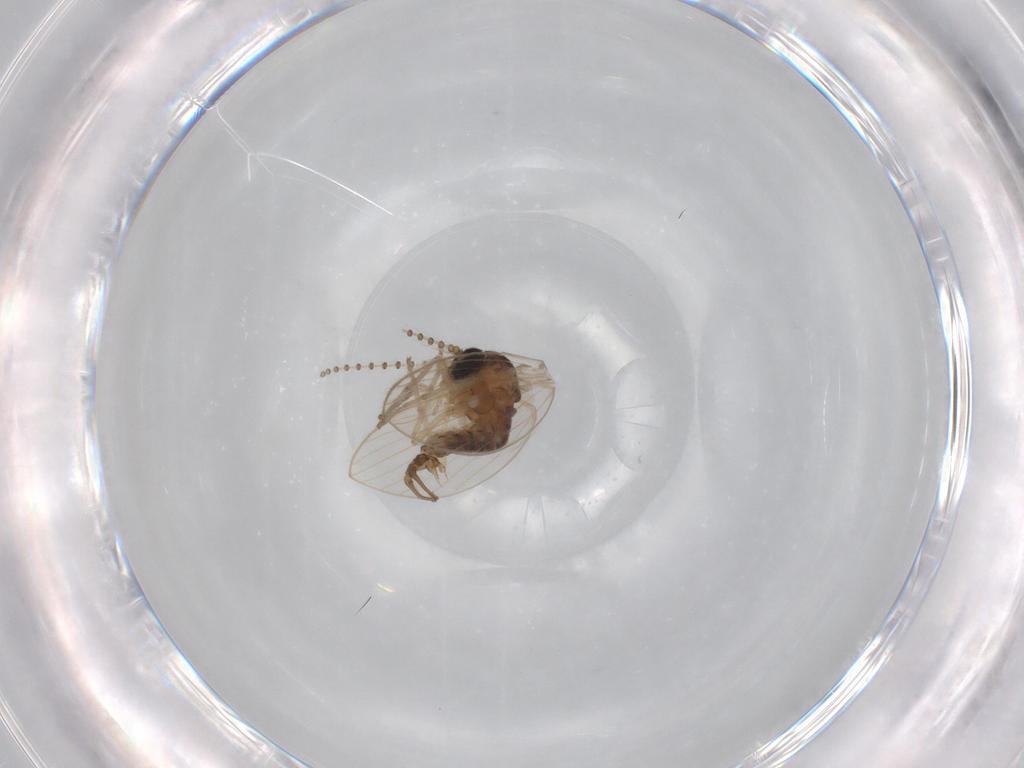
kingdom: Animalia
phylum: Arthropoda
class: Insecta
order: Diptera
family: Psychodidae
